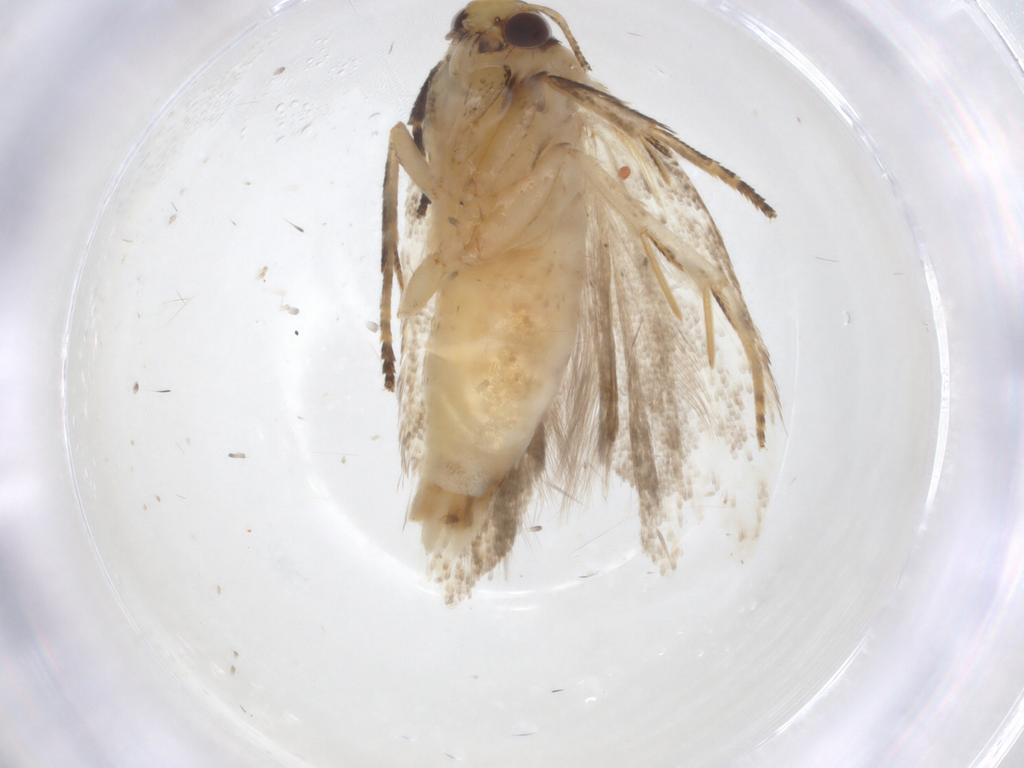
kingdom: Animalia
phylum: Arthropoda
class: Insecta
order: Lepidoptera
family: Gelechiidae
